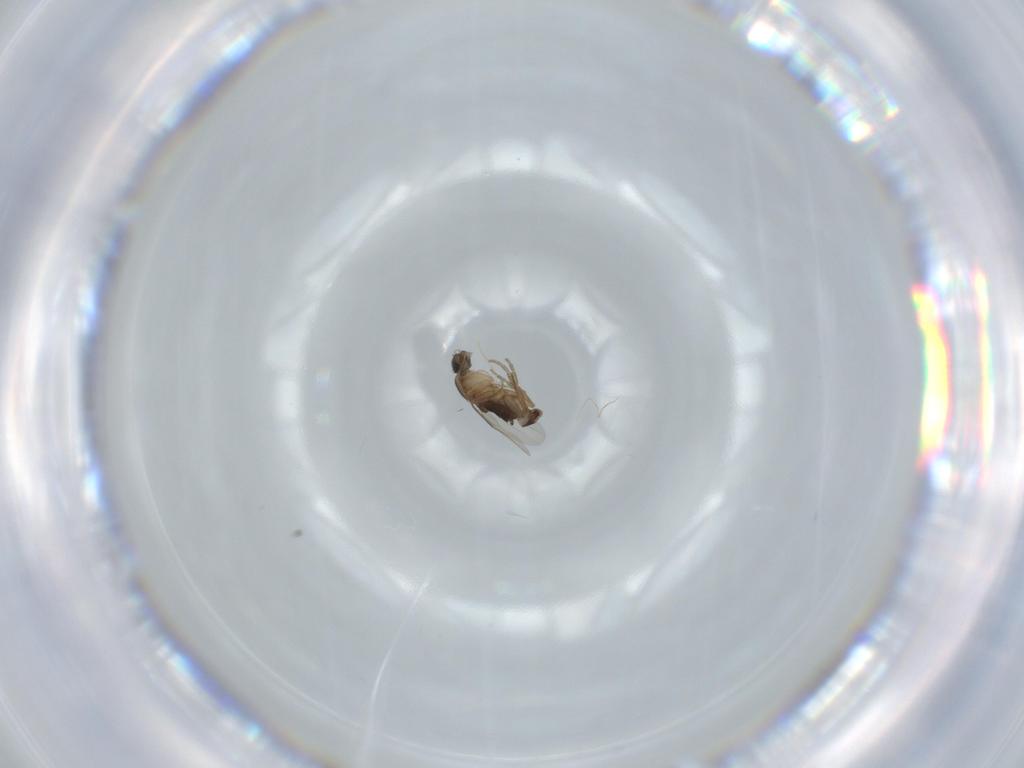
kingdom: Animalia
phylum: Arthropoda
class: Insecta
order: Diptera
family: Phoridae
